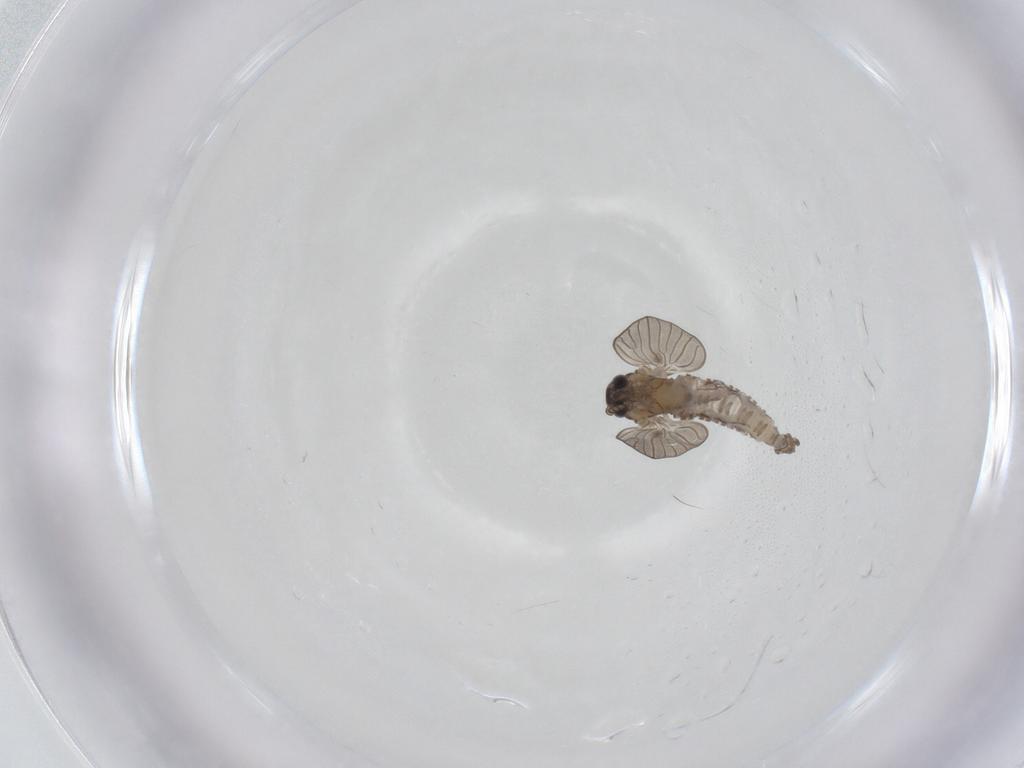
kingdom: Animalia
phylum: Arthropoda
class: Insecta
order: Diptera
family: Psychodidae
